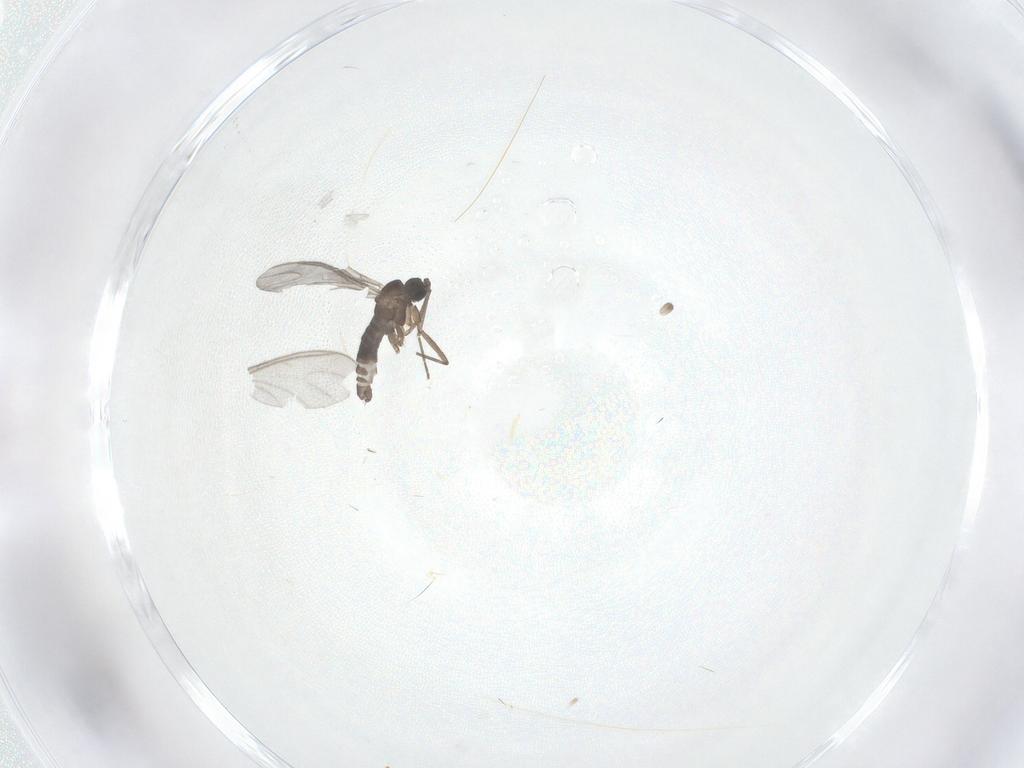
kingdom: Animalia
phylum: Arthropoda
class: Insecta
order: Diptera
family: Sciaridae
